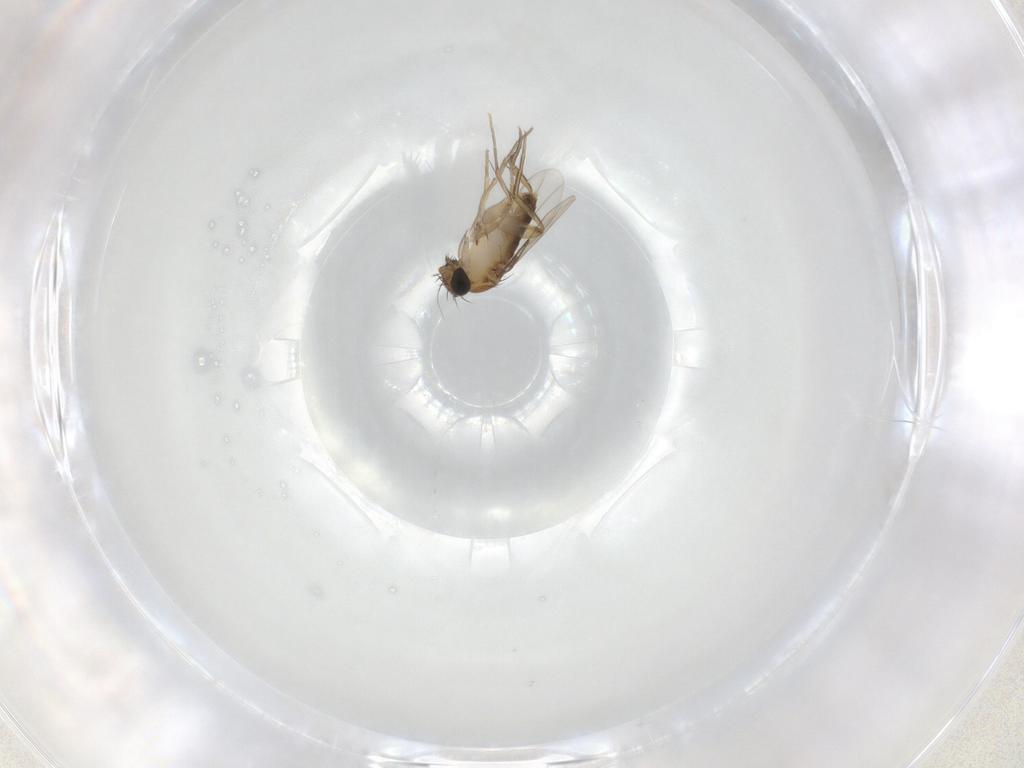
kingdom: Animalia
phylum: Arthropoda
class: Insecta
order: Diptera
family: Phoridae
